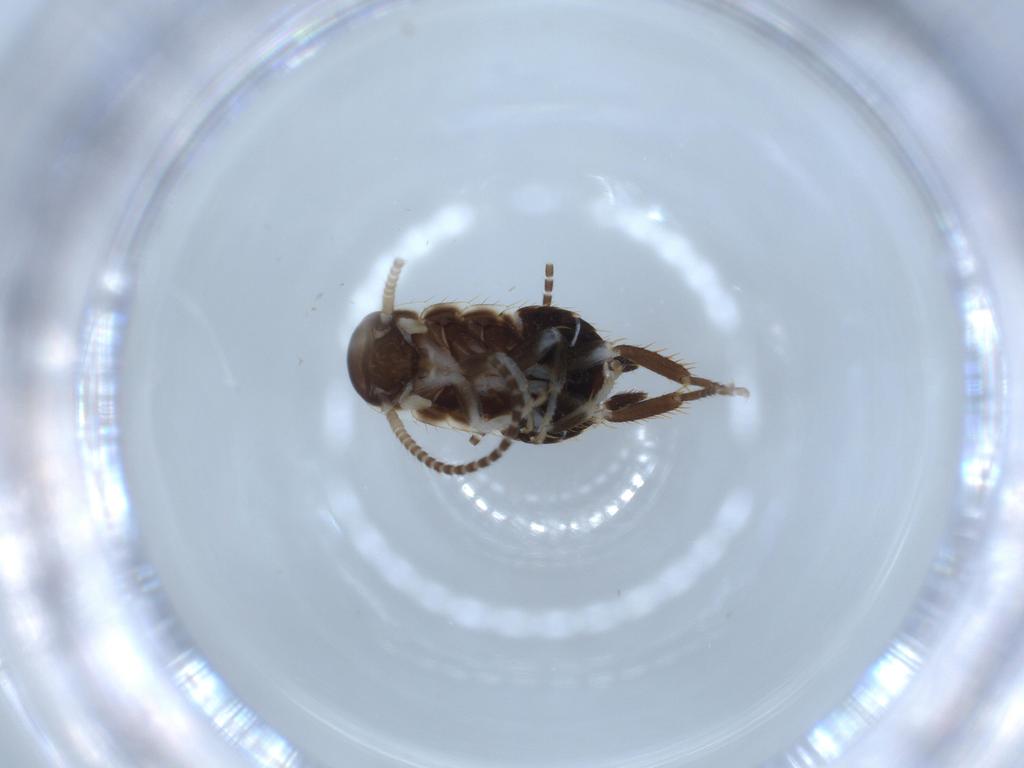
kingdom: Animalia
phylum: Arthropoda
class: Insecta
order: Blattodea
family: Ectobiidae
